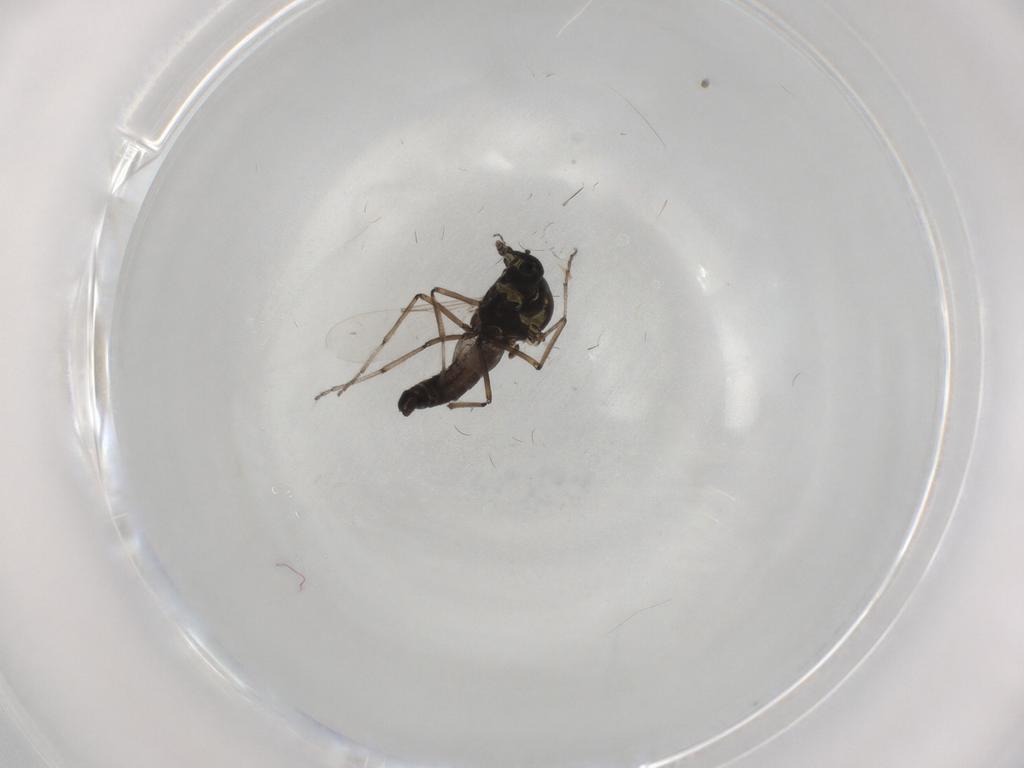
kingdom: Animalia
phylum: Arthropoda
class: Insecta
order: Diptera
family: Ceratopogonidae
